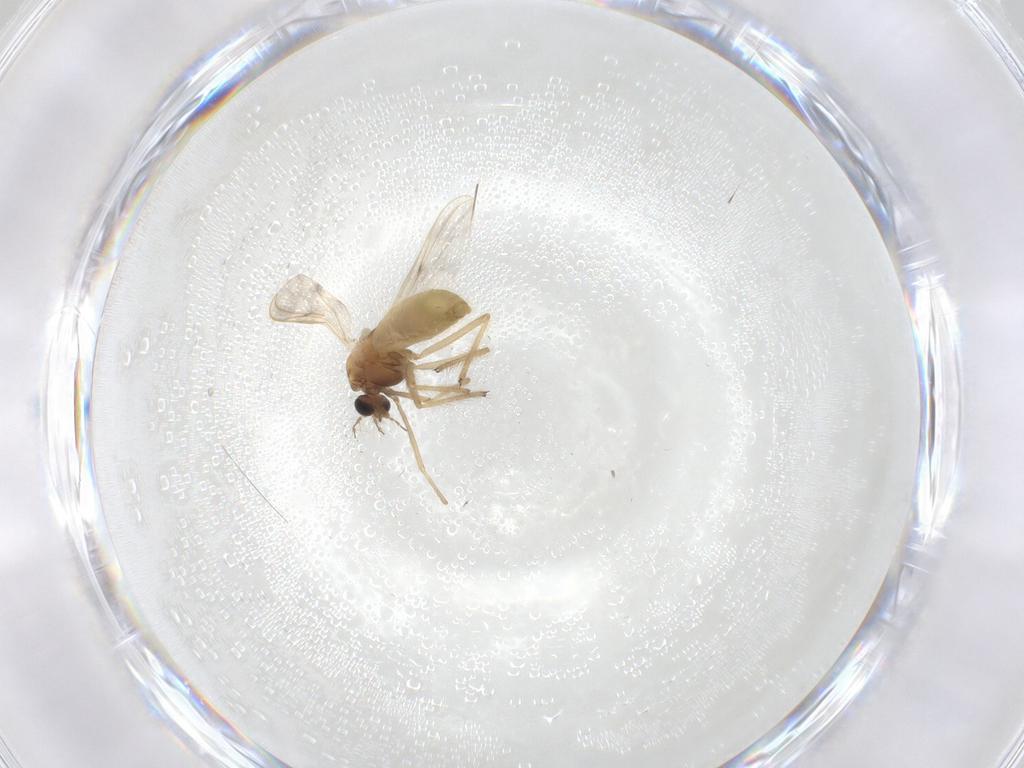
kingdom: Animalia
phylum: Arthropoda
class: Insecta
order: Diptera
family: Chironomidae
